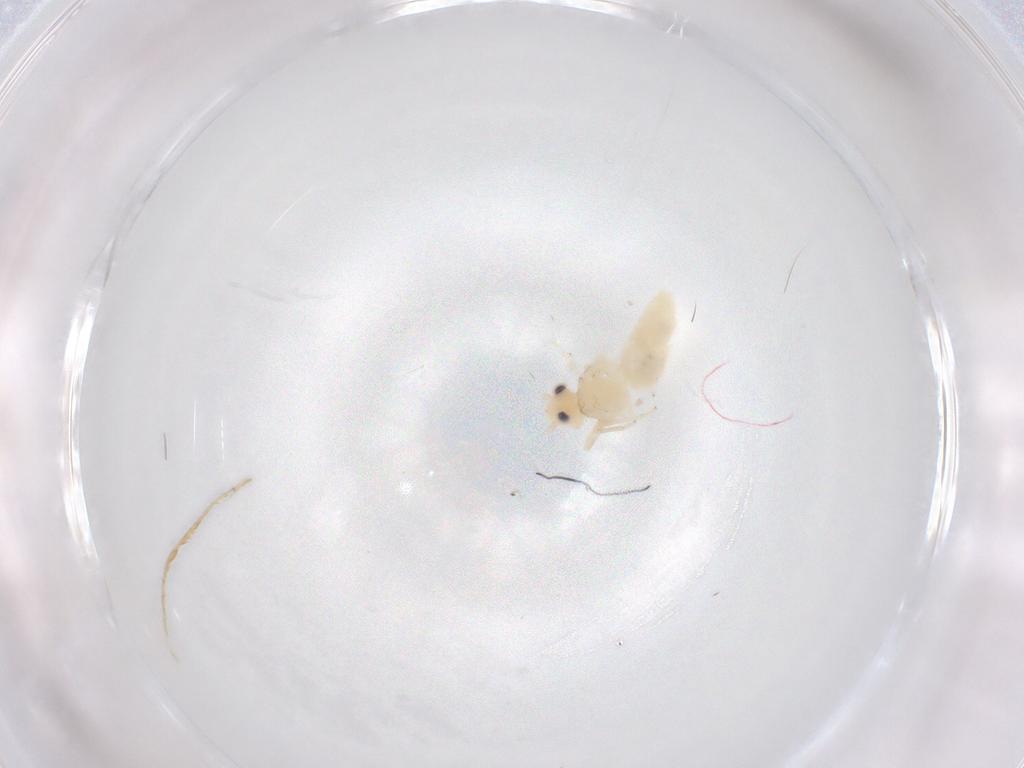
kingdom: Animalia
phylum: Arthropoda
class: Insecta
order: Psocodea
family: Caeciliusidae
